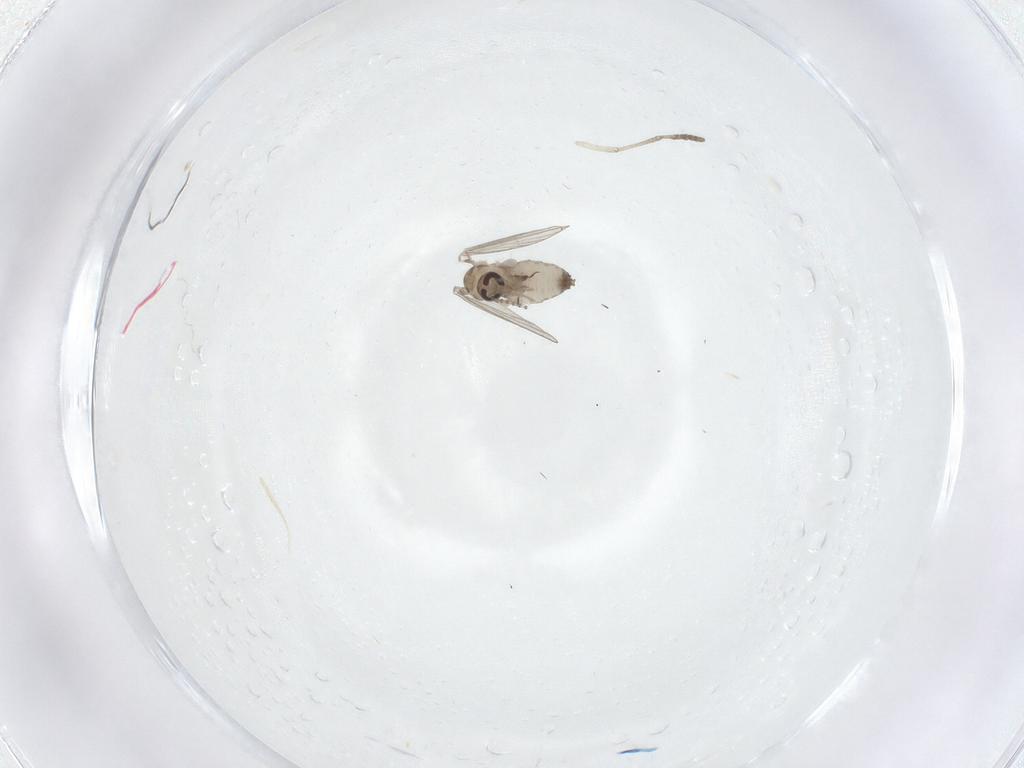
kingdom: Animalia
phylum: Arthropoda
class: Insecta
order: Diptera
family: Psychodidae
